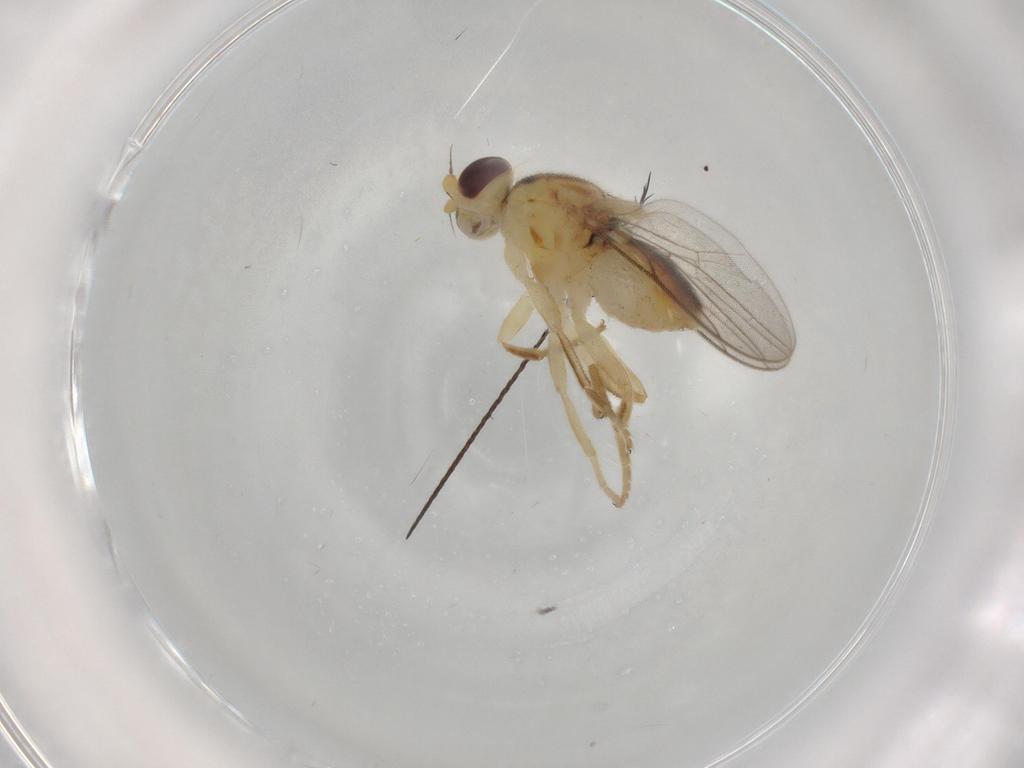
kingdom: Animalia
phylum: Arthropoda
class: Insecta
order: Diptera
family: Chloropidae
